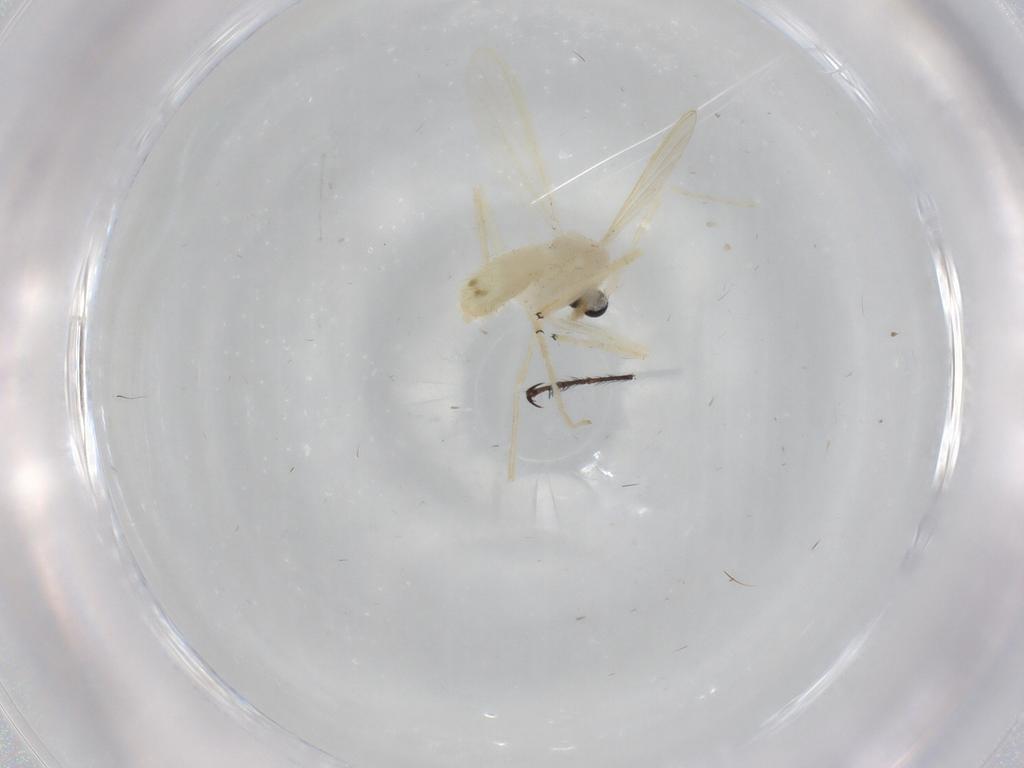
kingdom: Animalia
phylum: Arthropoda
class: Insecta
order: Diptera
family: Chironomidae
